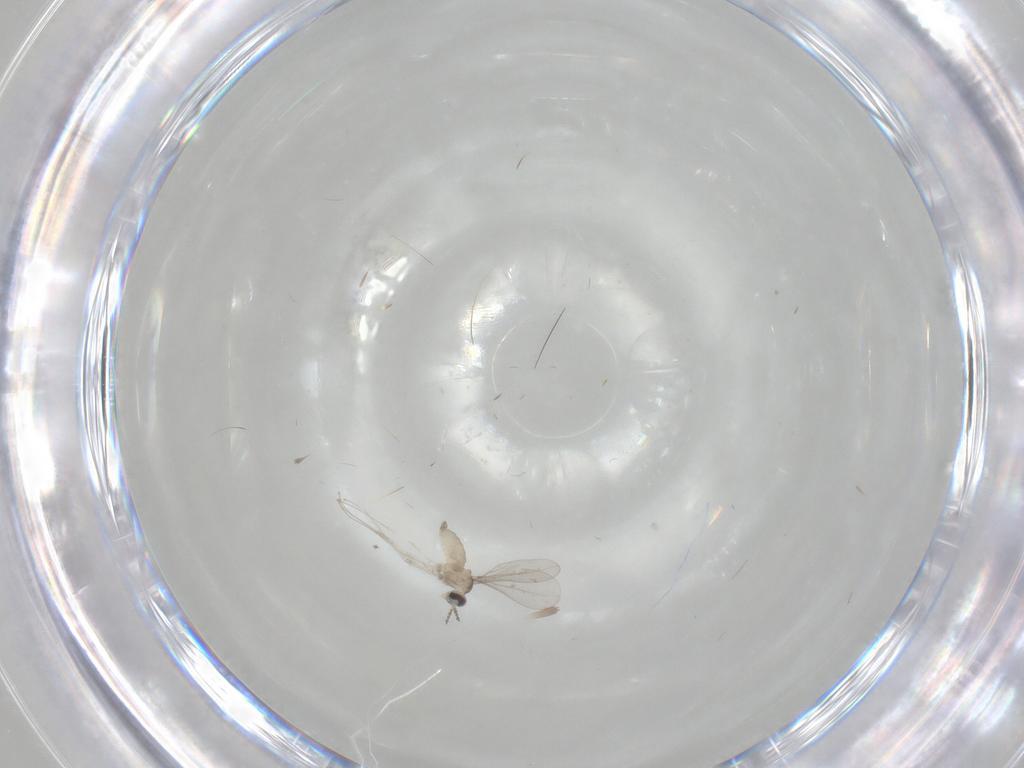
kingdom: Animalia
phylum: Arthropoda
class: Insecta
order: Diptera
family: Cecidomyiidae
